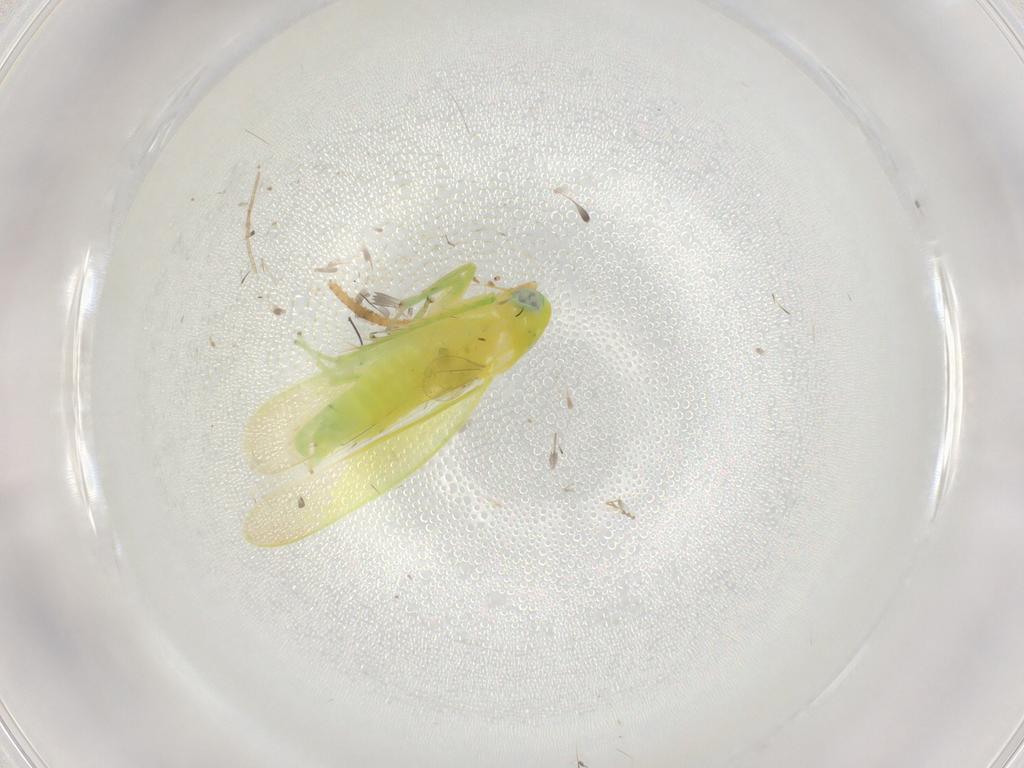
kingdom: Animalia
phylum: Arthropoda
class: Insecta
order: Hemiptera
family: Cicadellidae
